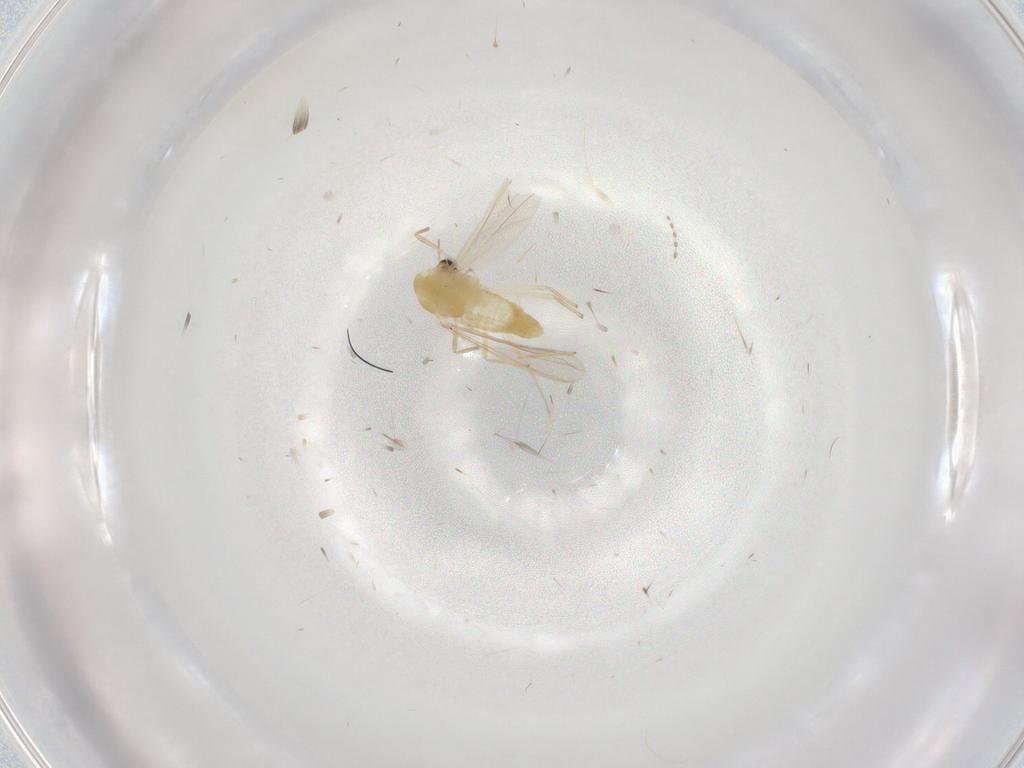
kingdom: Animalia
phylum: Arthropoda
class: Insecta
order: Diptera
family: Chironomidae
